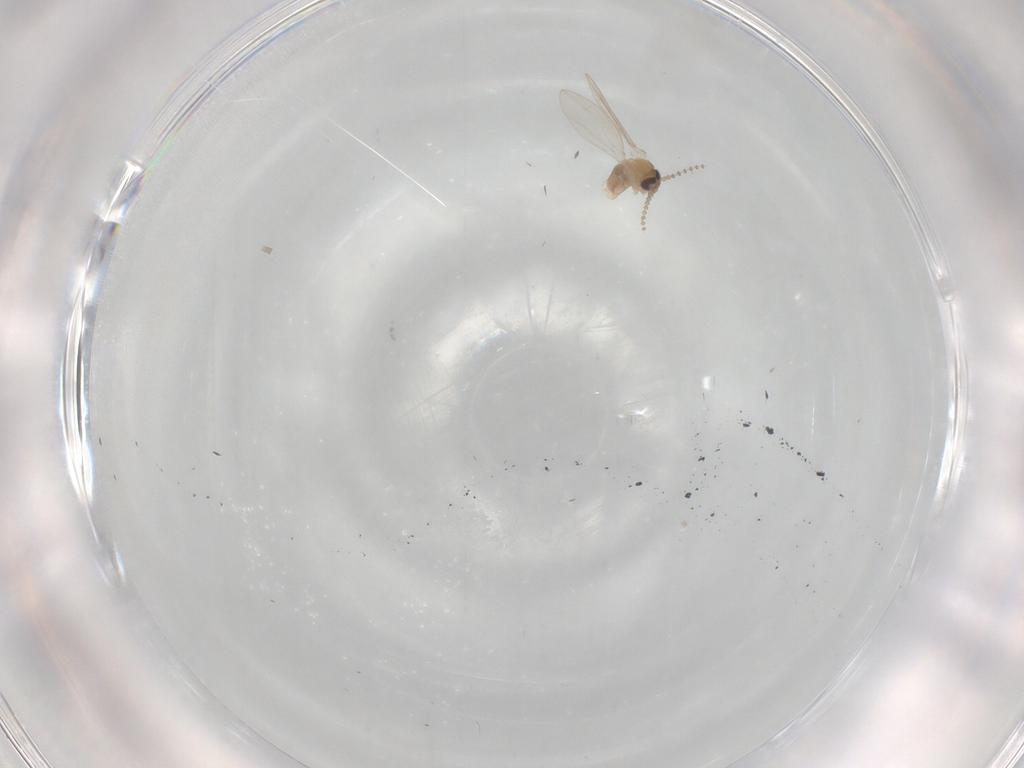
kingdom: Animalia
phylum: Arthropoda
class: Insecta
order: Diptera
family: Psychodidae
